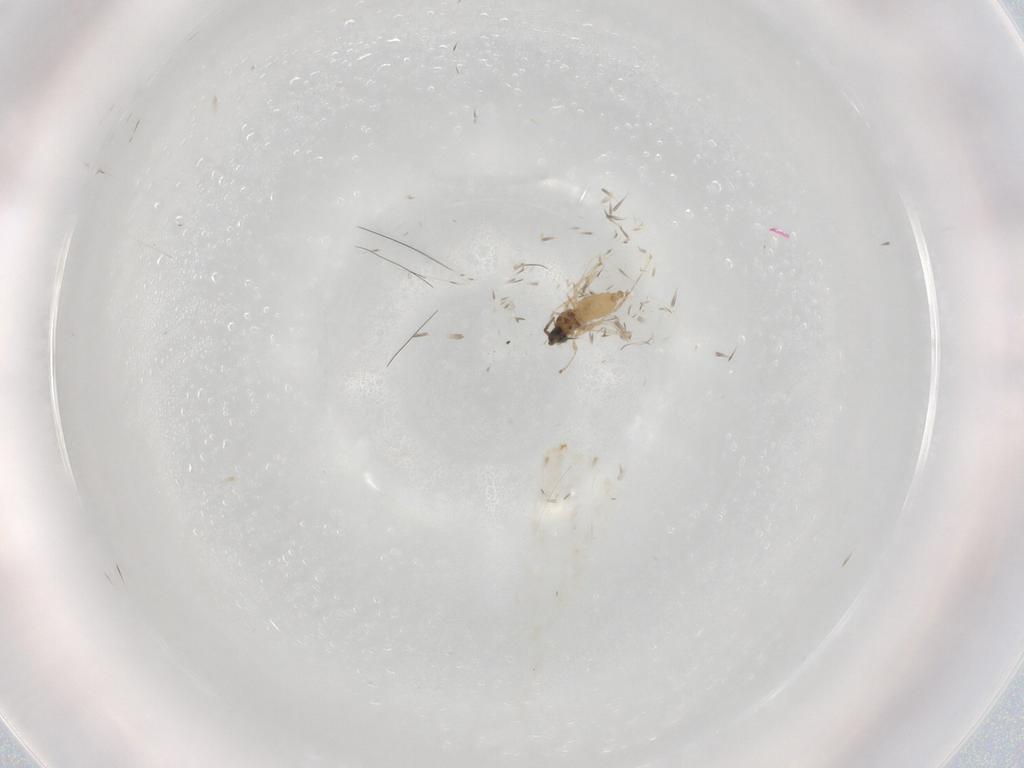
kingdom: Animalia
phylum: Arthropoda
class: Insecta
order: Diptera
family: Cecidomyiidae
